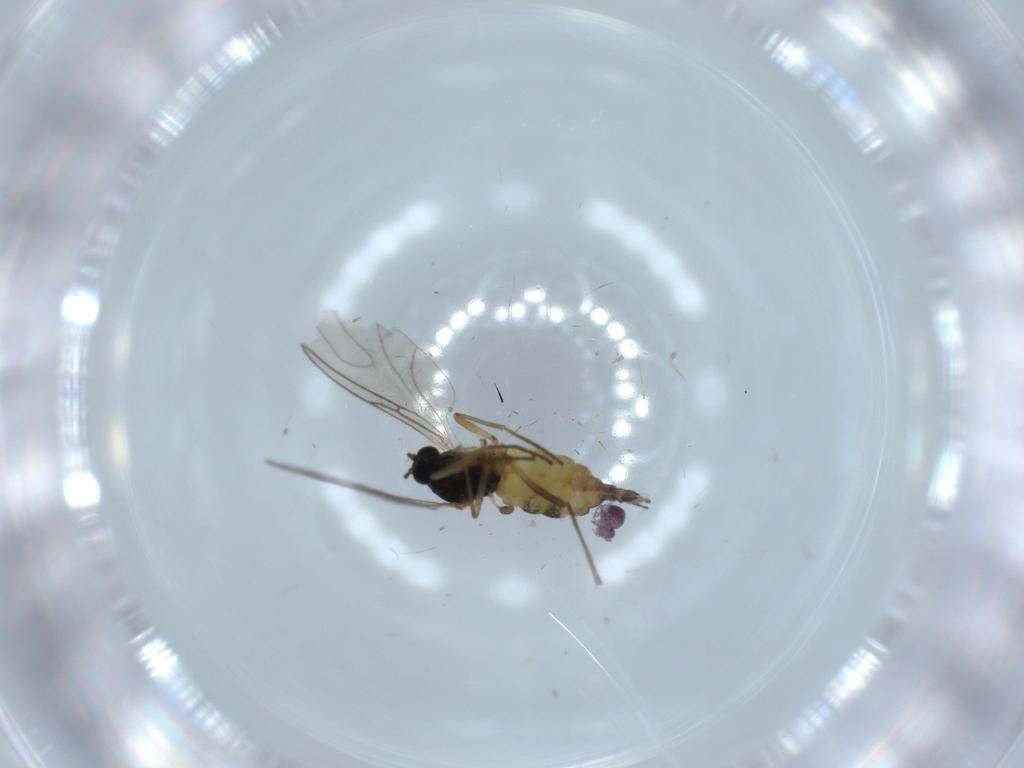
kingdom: Animalia
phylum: Arthropoda
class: Insecta
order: Diptera
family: Sciaridae
